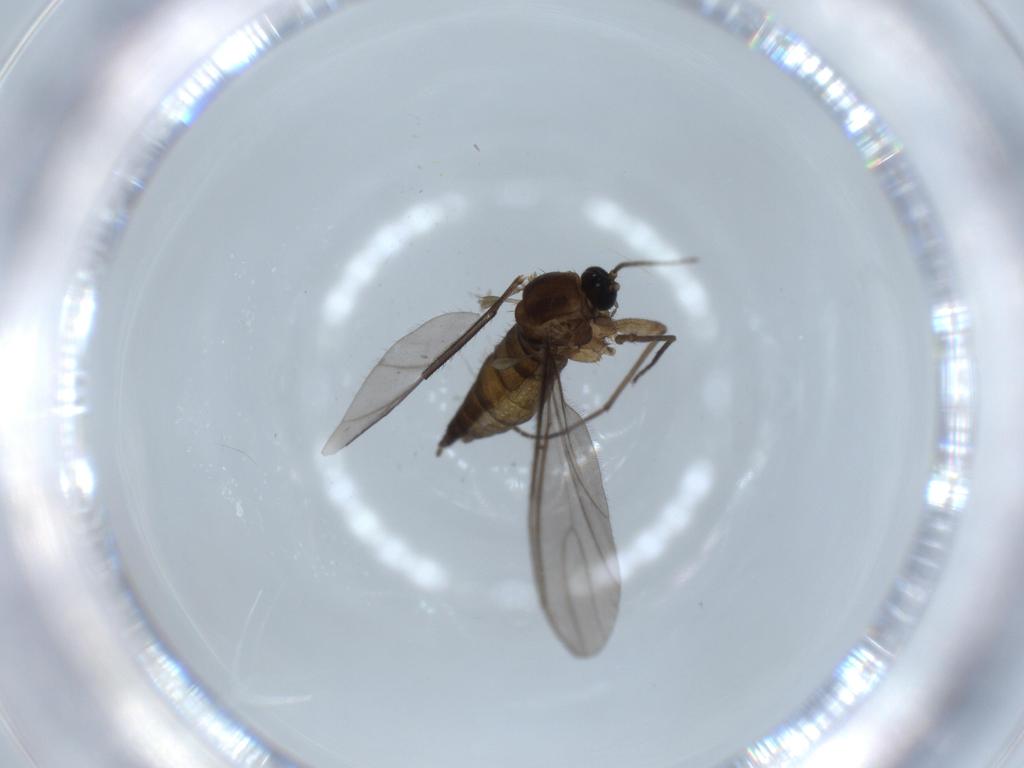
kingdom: Animalia
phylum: Arthropoda
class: Insecta
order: Diptera
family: Sciaridae
